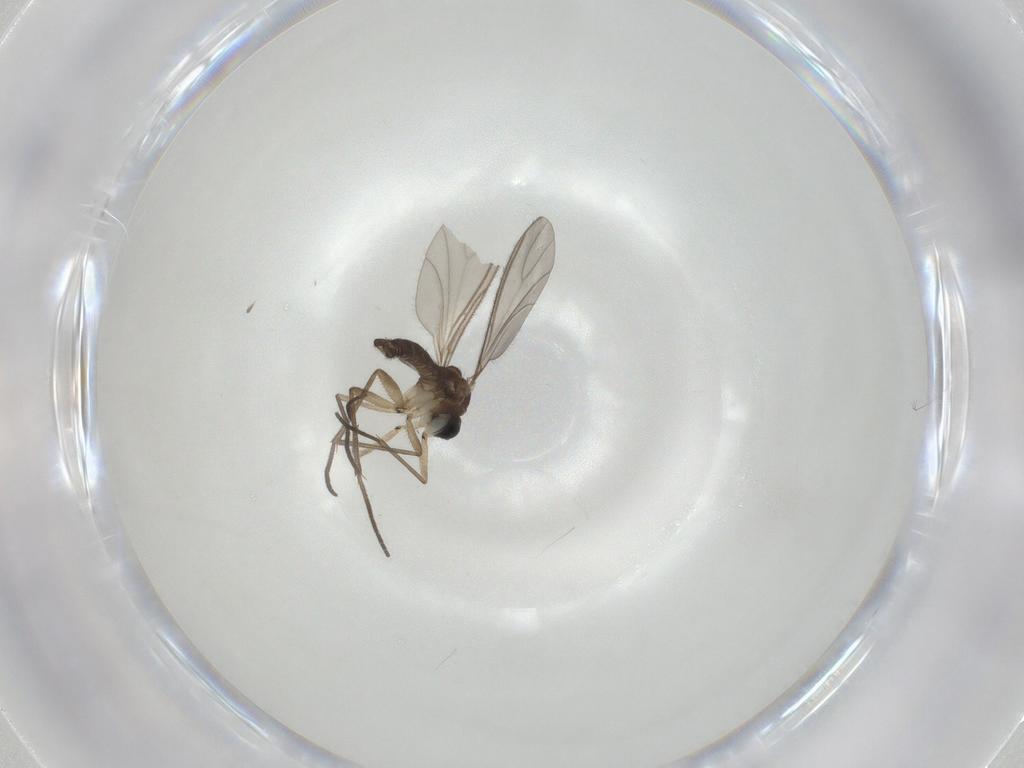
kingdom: Animalia
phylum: Arthropoda
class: Insecta
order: Diptera
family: Sciaridae
